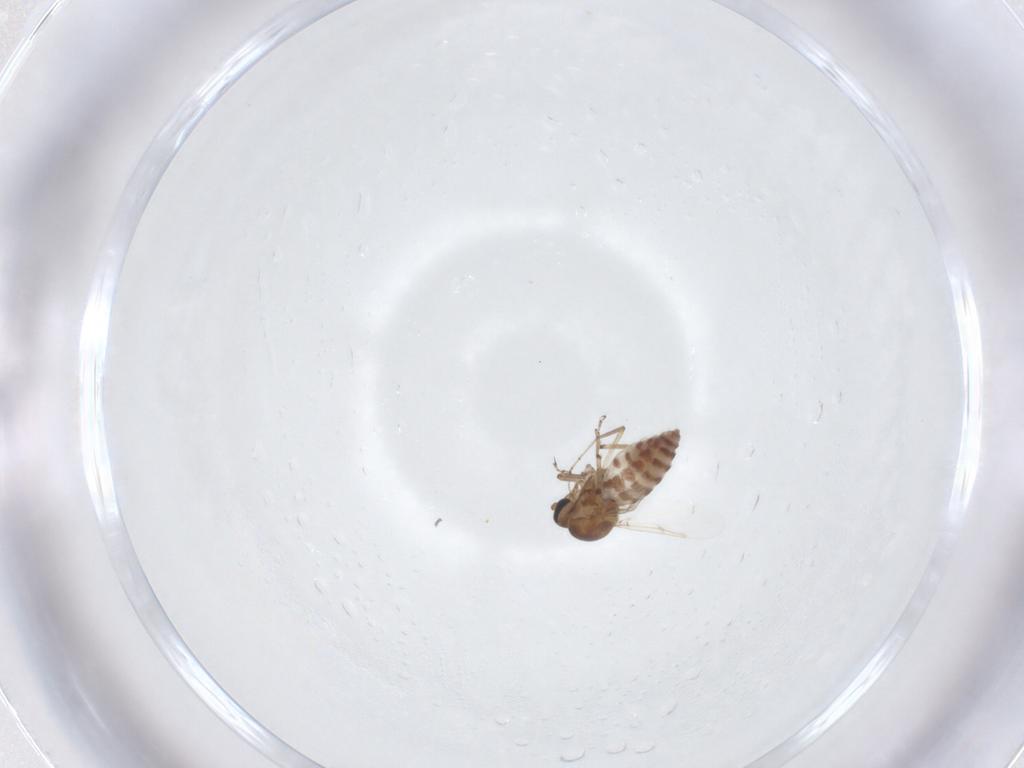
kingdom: Animalia
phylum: Arthropoda
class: Insecta
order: Diptera
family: Ceratopogonidae
